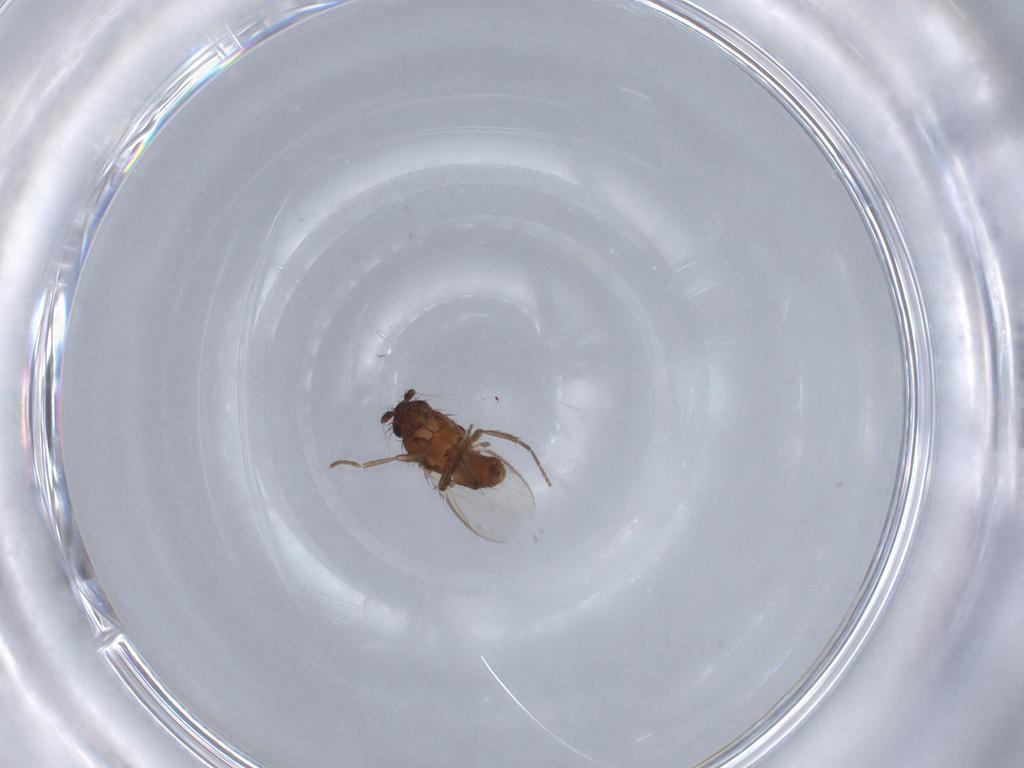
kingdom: Animalia
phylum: Arthropoda
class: Insecta
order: Diptera
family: Sphaeroceridae
